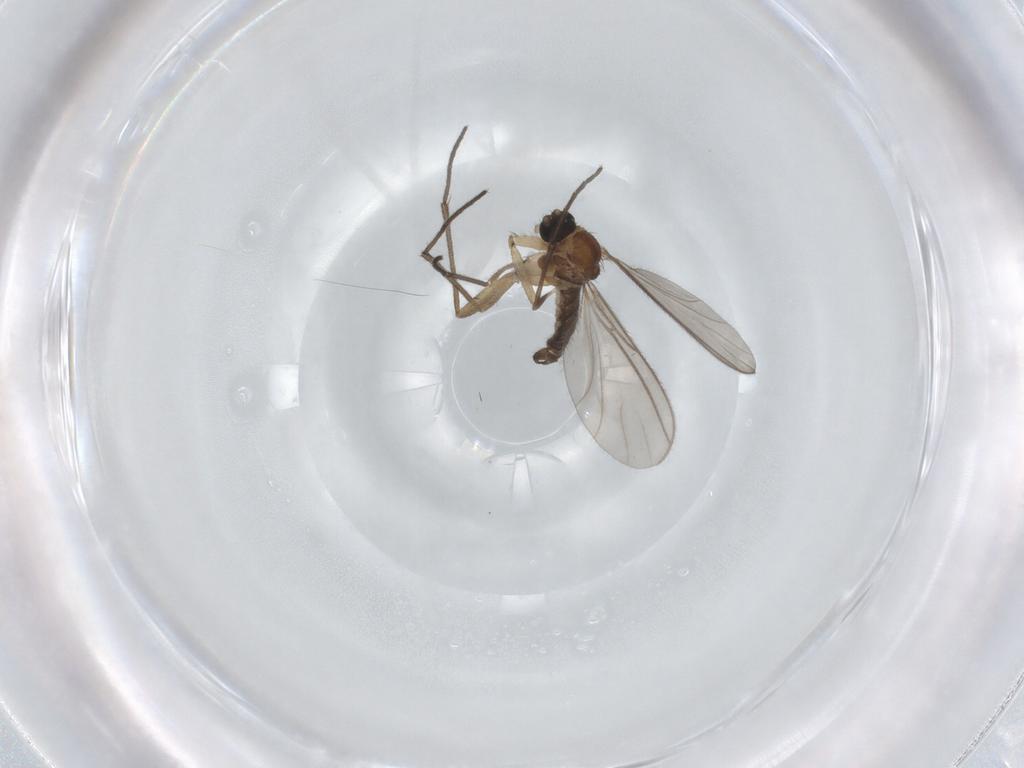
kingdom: Animalia
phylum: Arthropoda
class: Insecta
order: Diptera
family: Sciaridae
